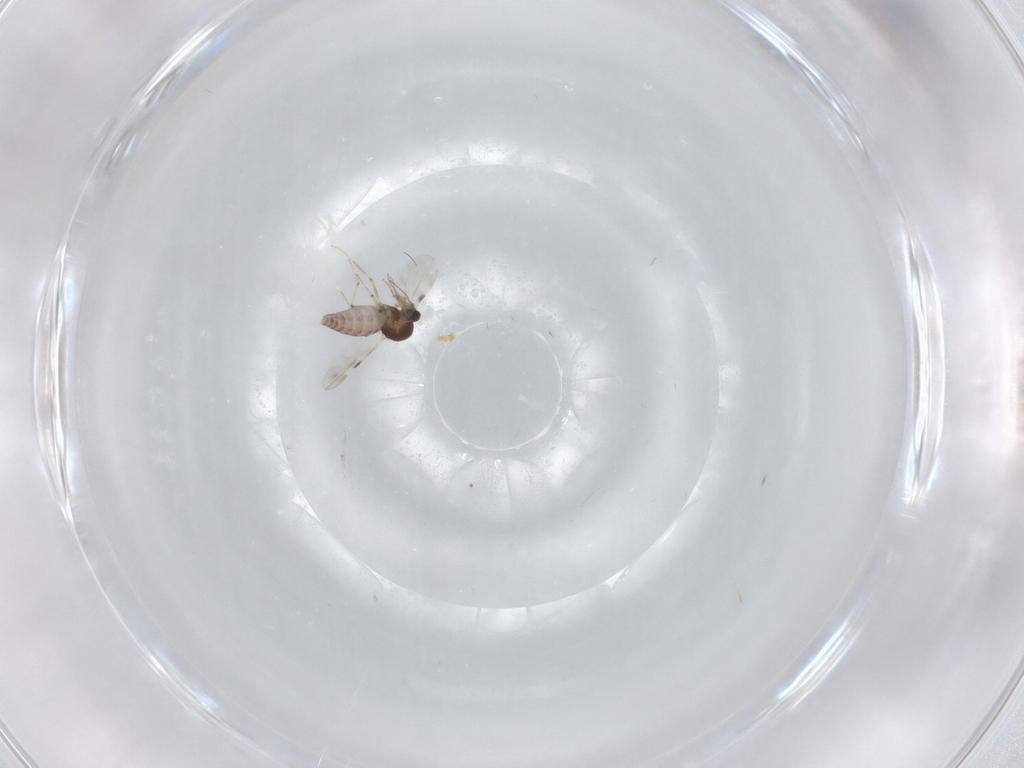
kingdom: Animalia
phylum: Arthropoda
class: Insecta
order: Diptera
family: Dolichopodidae
